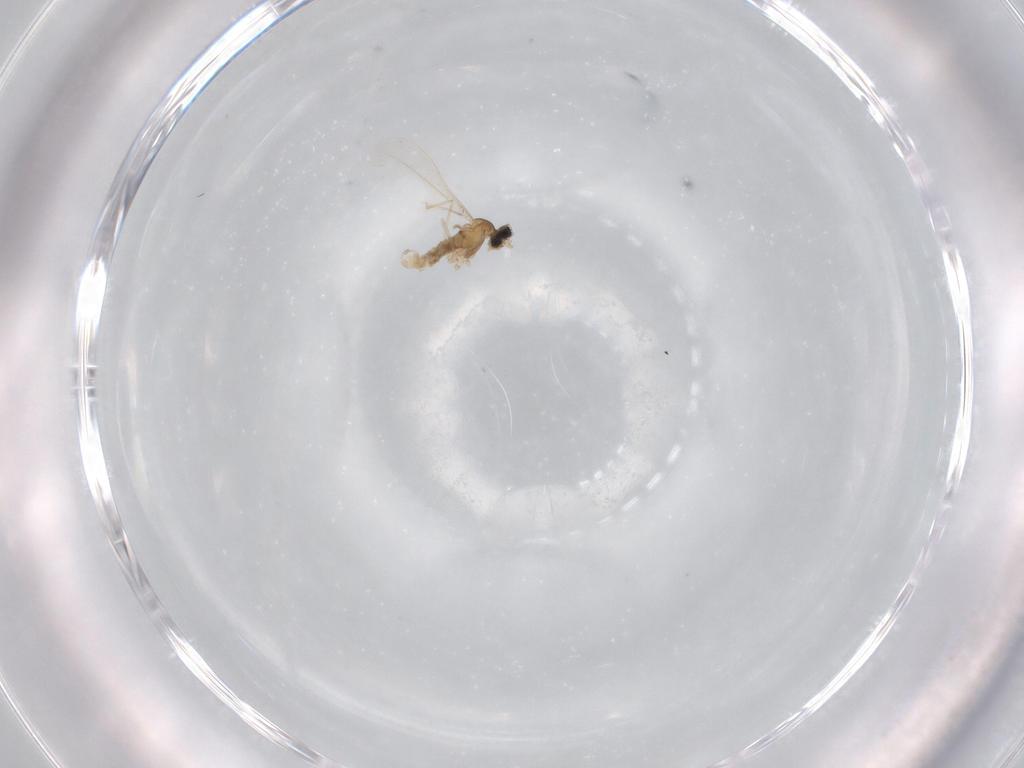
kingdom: Animalia
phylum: Arthropoda
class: Insecta
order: Diptera
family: Cecidomyiidae
